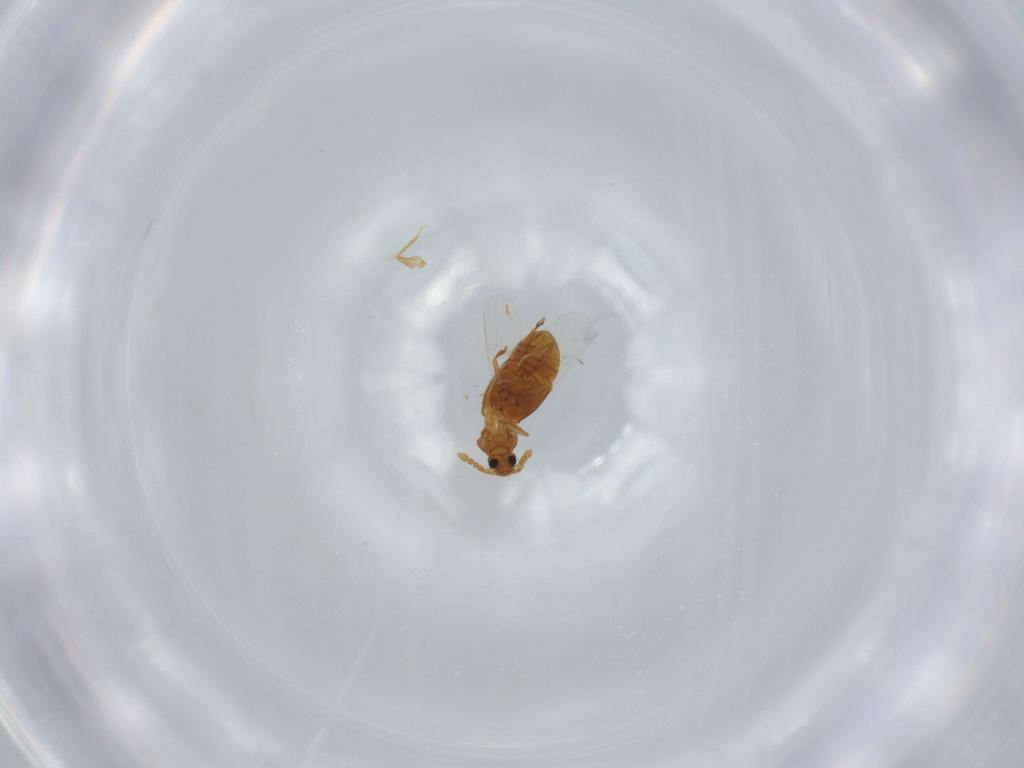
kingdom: Animalia
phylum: Arthropoda
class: Insecta
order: Coleoptera
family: Staphylinidae
